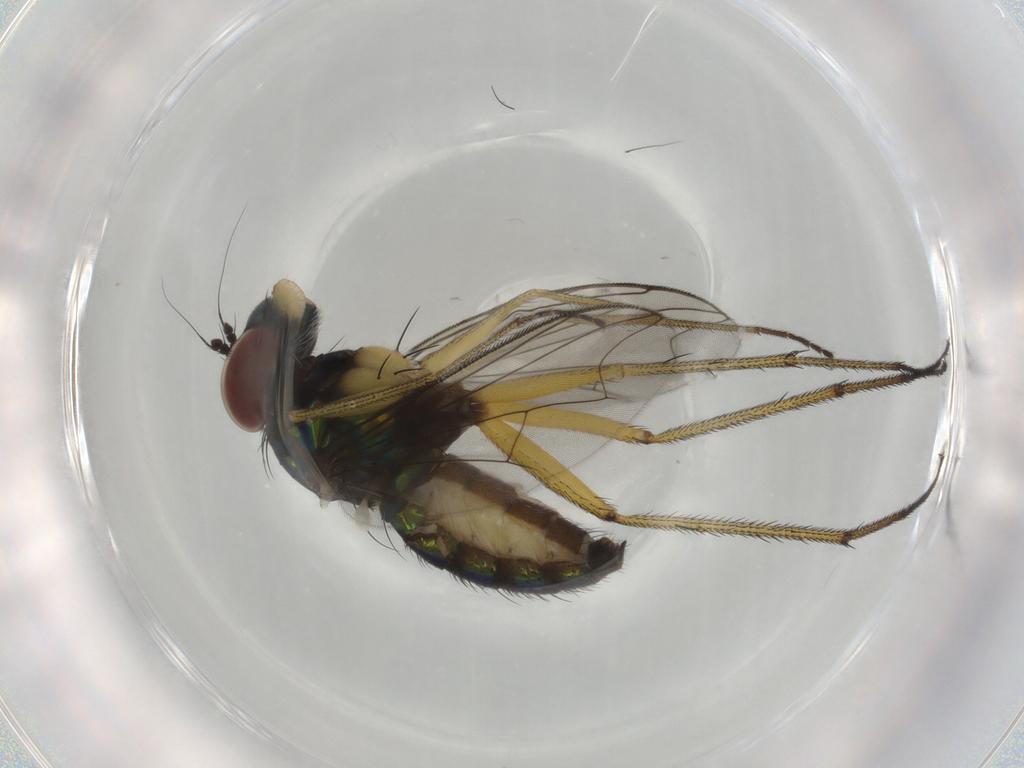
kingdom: Animalia
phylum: Arthropoda
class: Insecta
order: Diptera
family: Dolichopodidae
